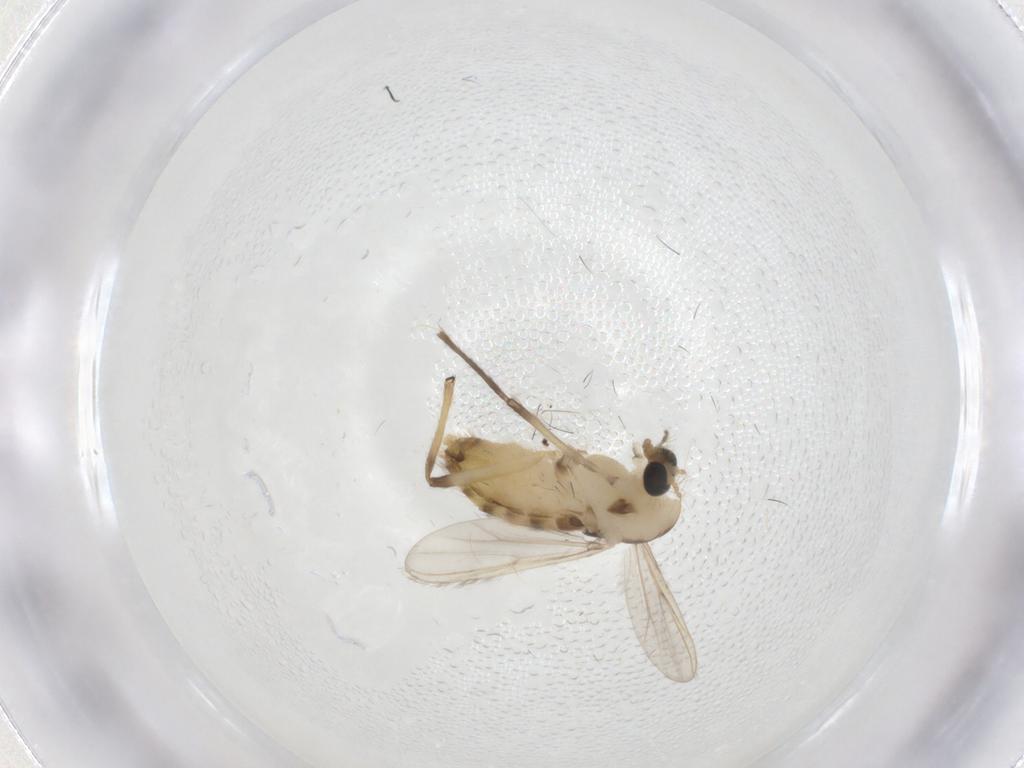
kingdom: Animalia
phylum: Arthropoda
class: Insecta
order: Diptera
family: Chironomidae
